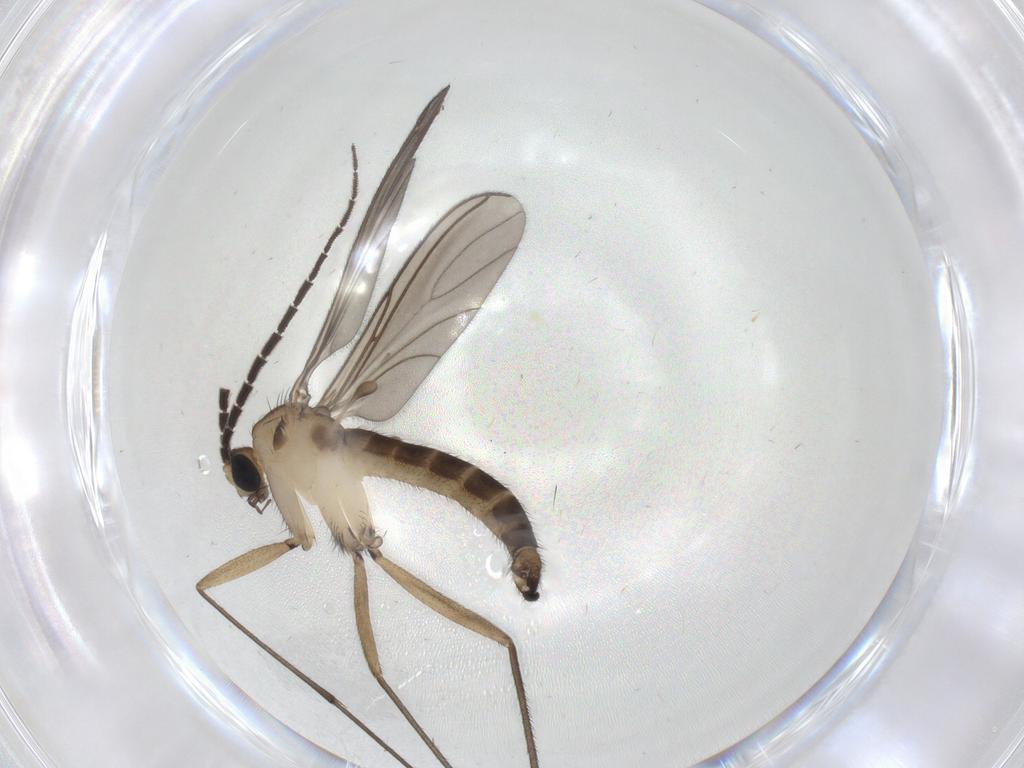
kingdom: Animalia
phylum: Arthropoda
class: Insecta
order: Diptera
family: Sciaridae
